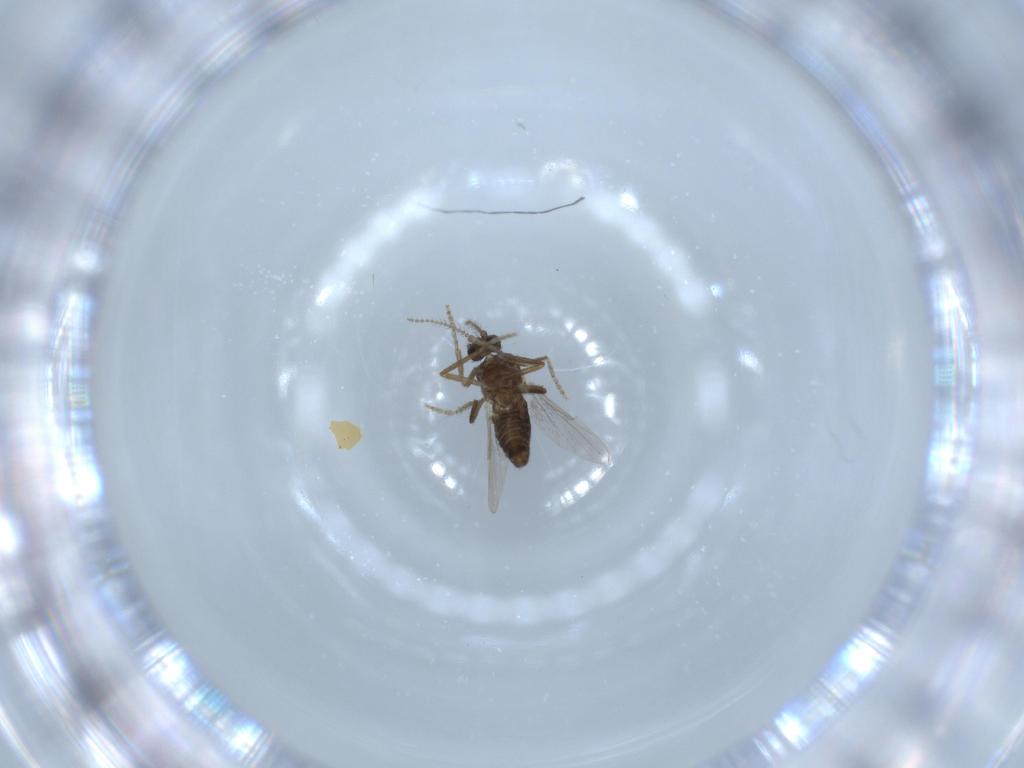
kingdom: Animalia
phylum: Arthropoda
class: Insecta
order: Diptera
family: Ceratopogonidae
